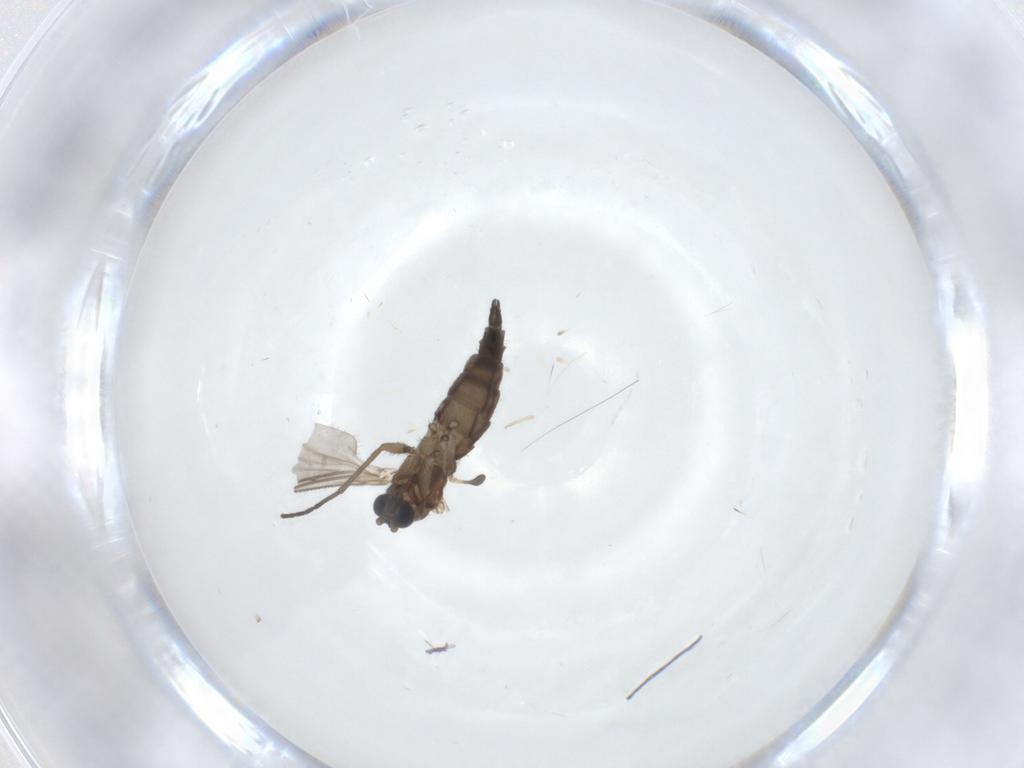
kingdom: Animalia
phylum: Arthropoda
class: Insecta
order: Diptera
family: Sciaridae
